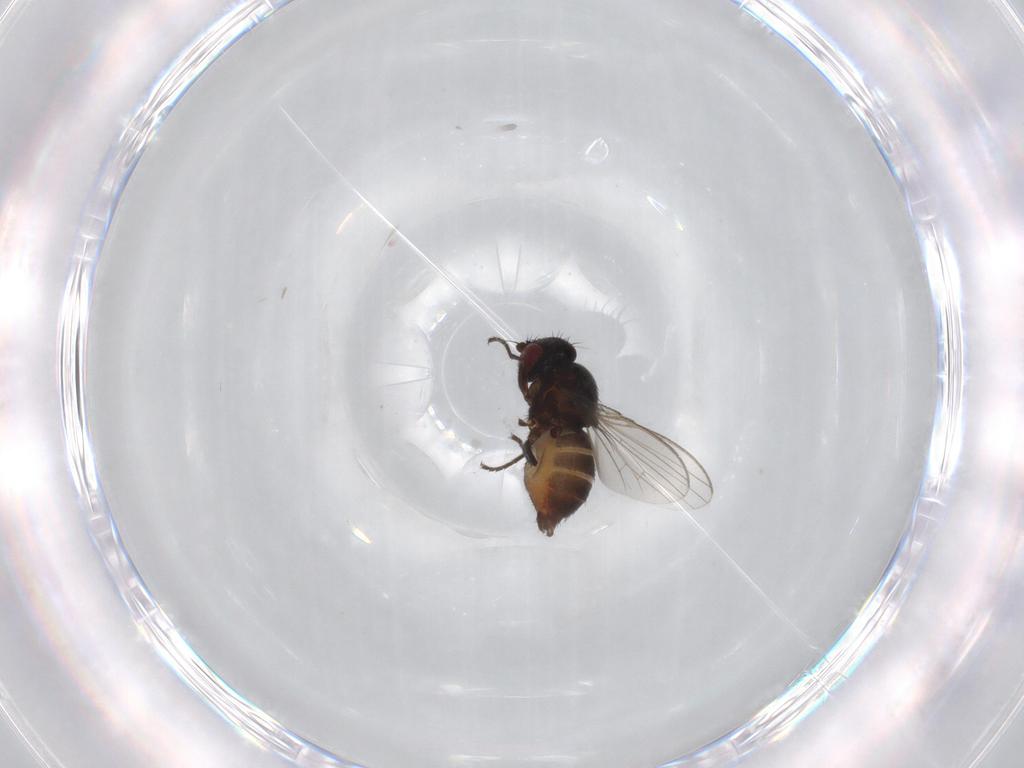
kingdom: Animalia
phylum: Arthropoda
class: Insecta
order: Diptera
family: Milichiidae
